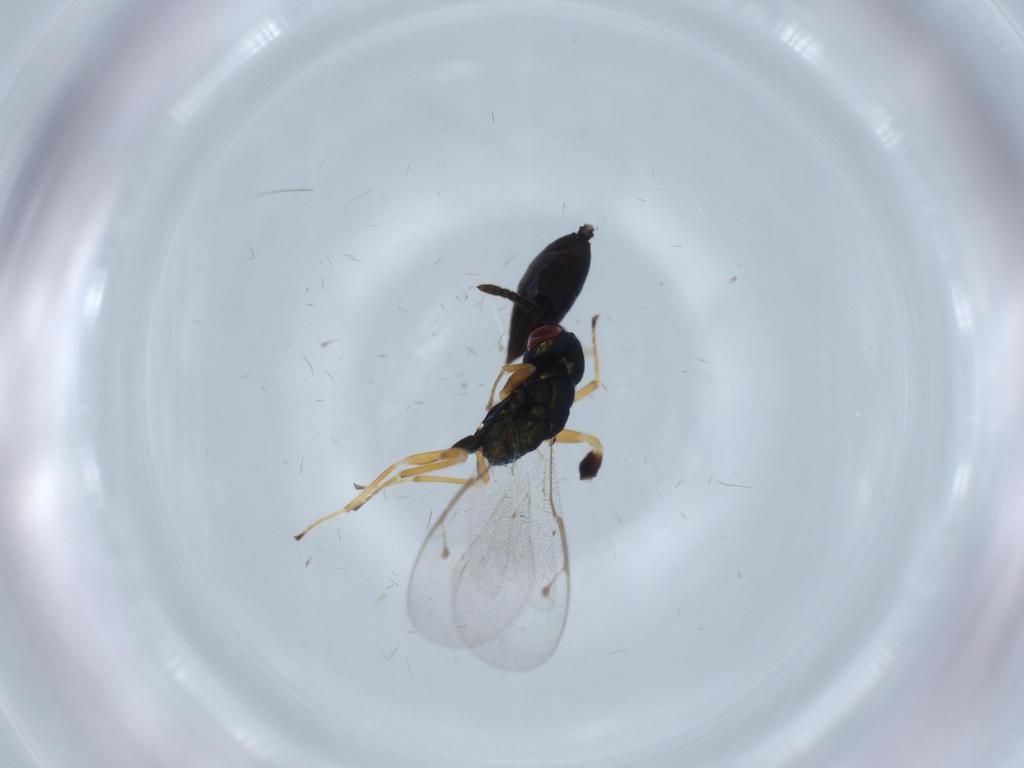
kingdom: Animalia
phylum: Arthropoda
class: Insecta
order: Hymenoptera
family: Pteromalidae
